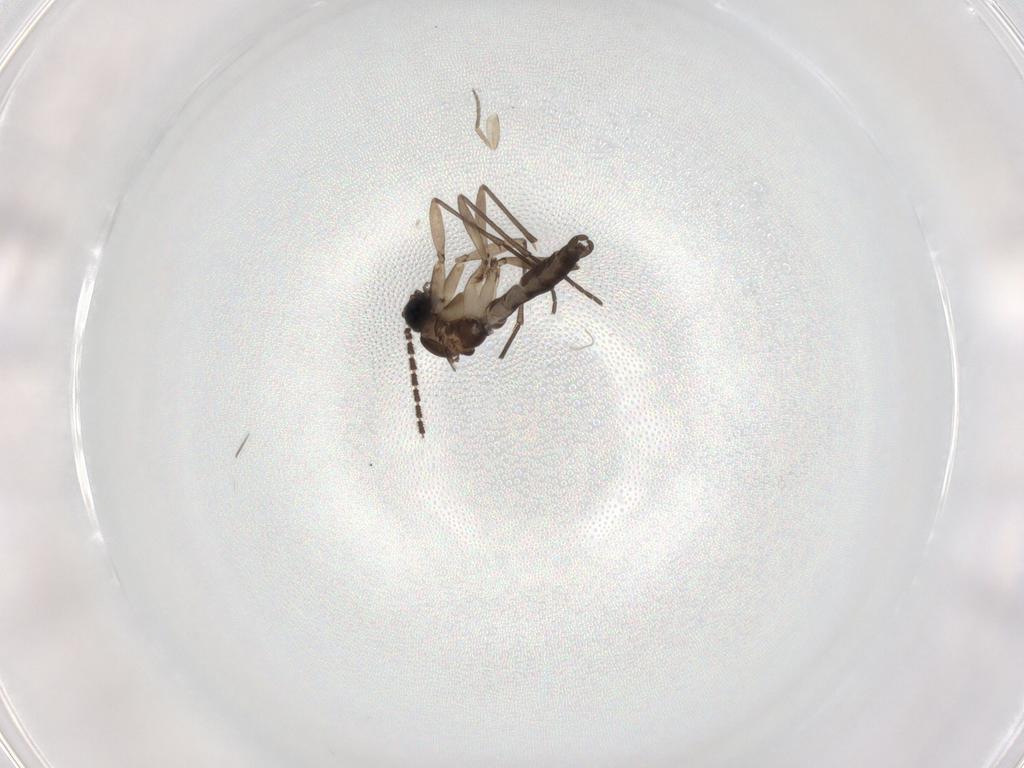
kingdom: Animalia
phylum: Arthropoda
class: Insecta
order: Diptera
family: Sciaridae
